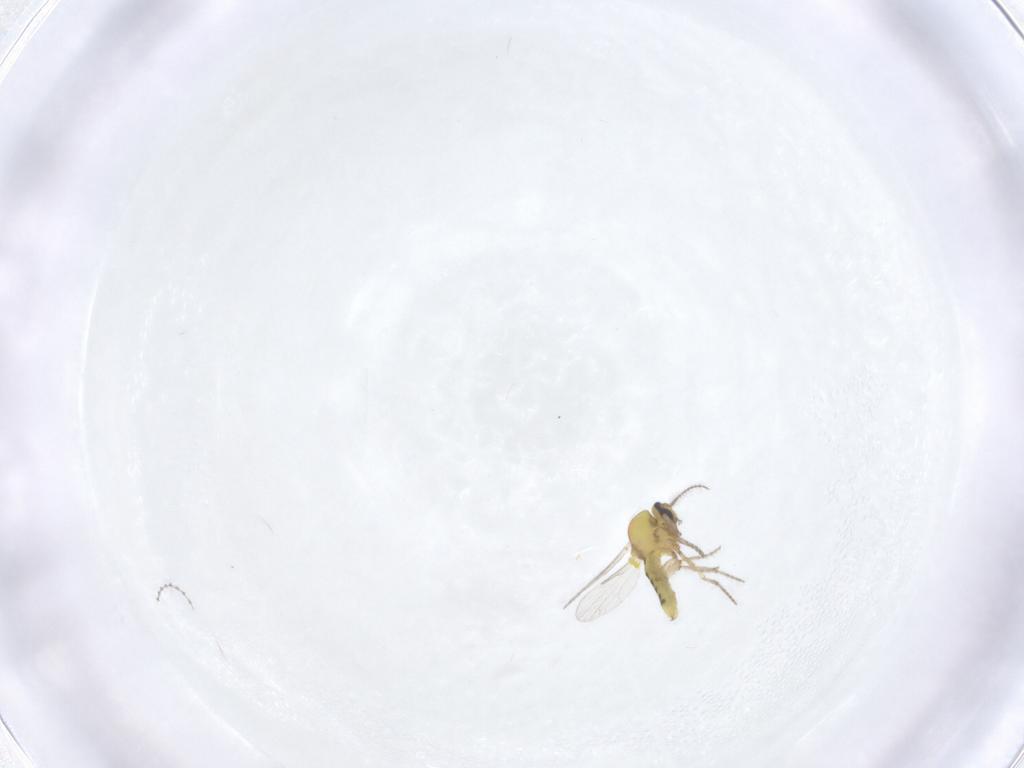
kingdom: Animalia
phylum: Arthropoda
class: Insecta
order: Diptera
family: Ceratopogonidae
